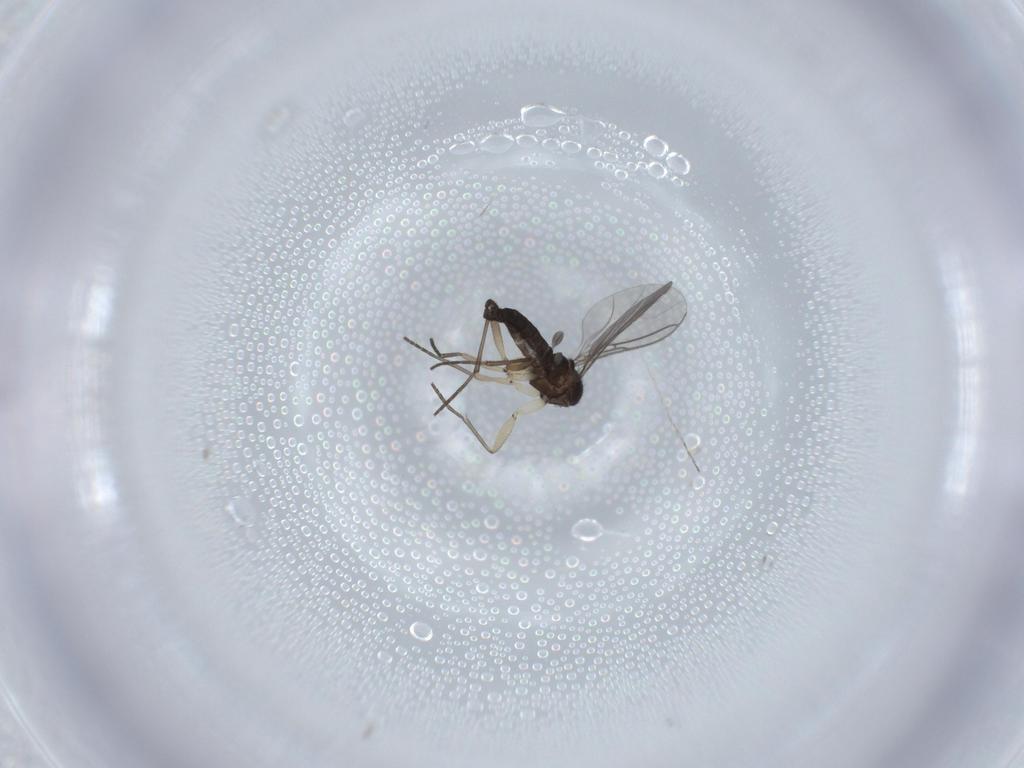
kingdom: Animalia
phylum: Arthropoda
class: Insecta
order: Diptera
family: Sciaridae
